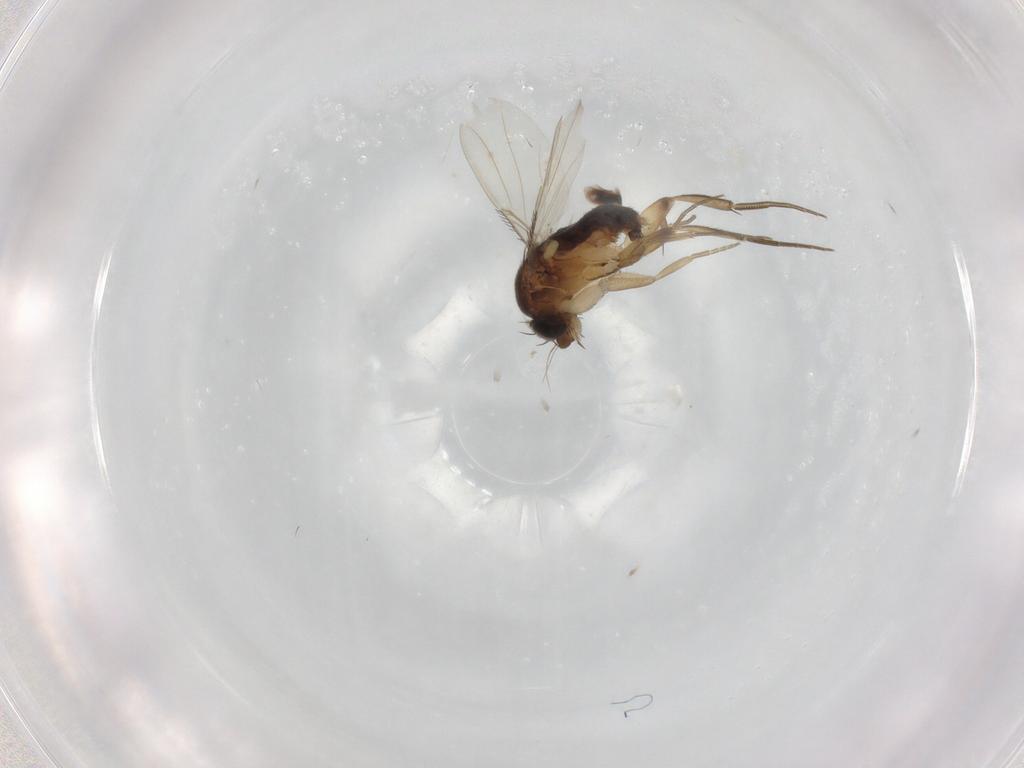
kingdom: Animalia
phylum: Arthropoda
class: Insecta
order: Diptera
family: Phoridae
